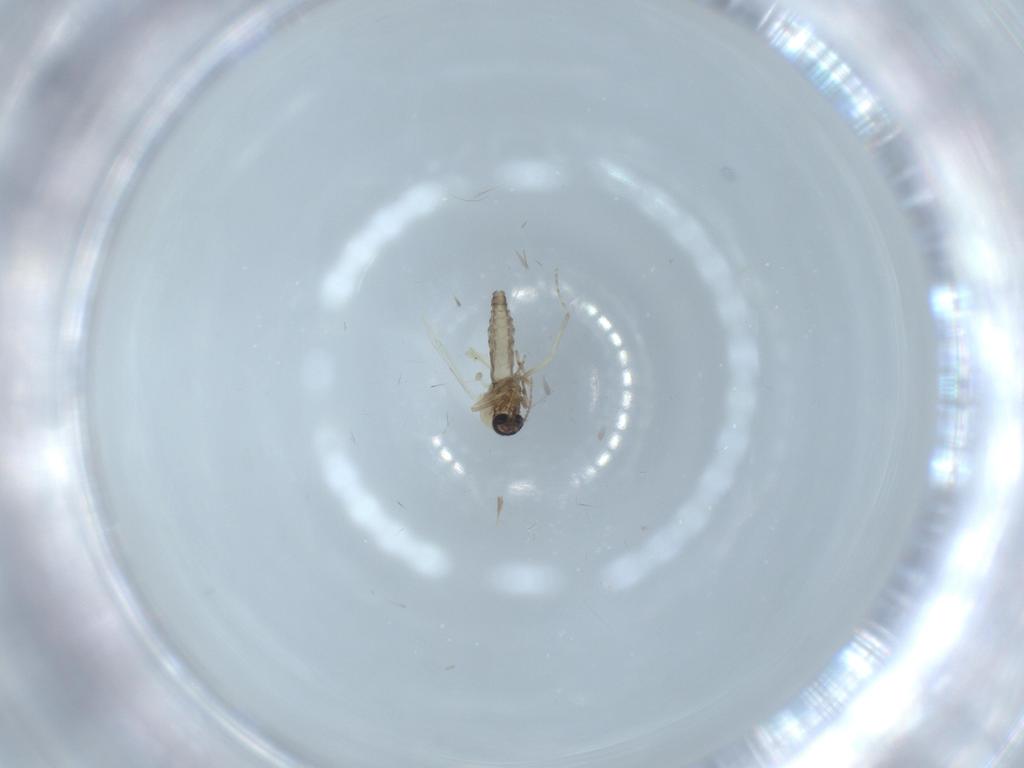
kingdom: Animalia
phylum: Arthropoda
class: Insecta
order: Diptera
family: Ceratopogonidae
